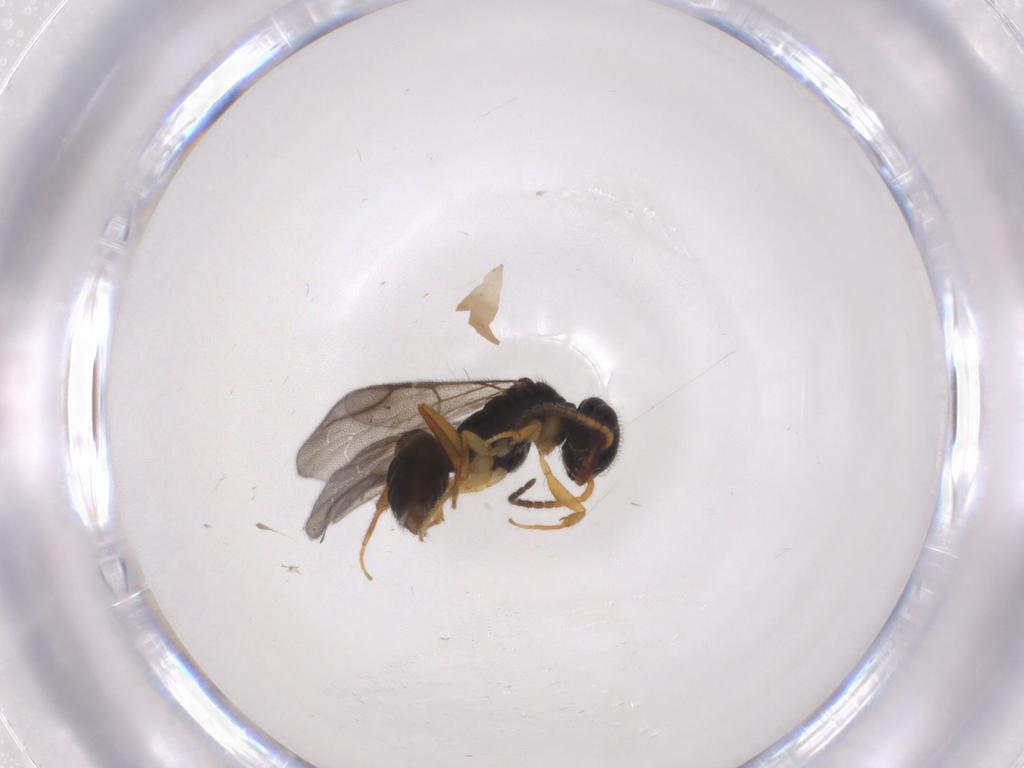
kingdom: Animalia
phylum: Arthropoda
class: Insecta
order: Hymenoptera
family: Bethylidae
